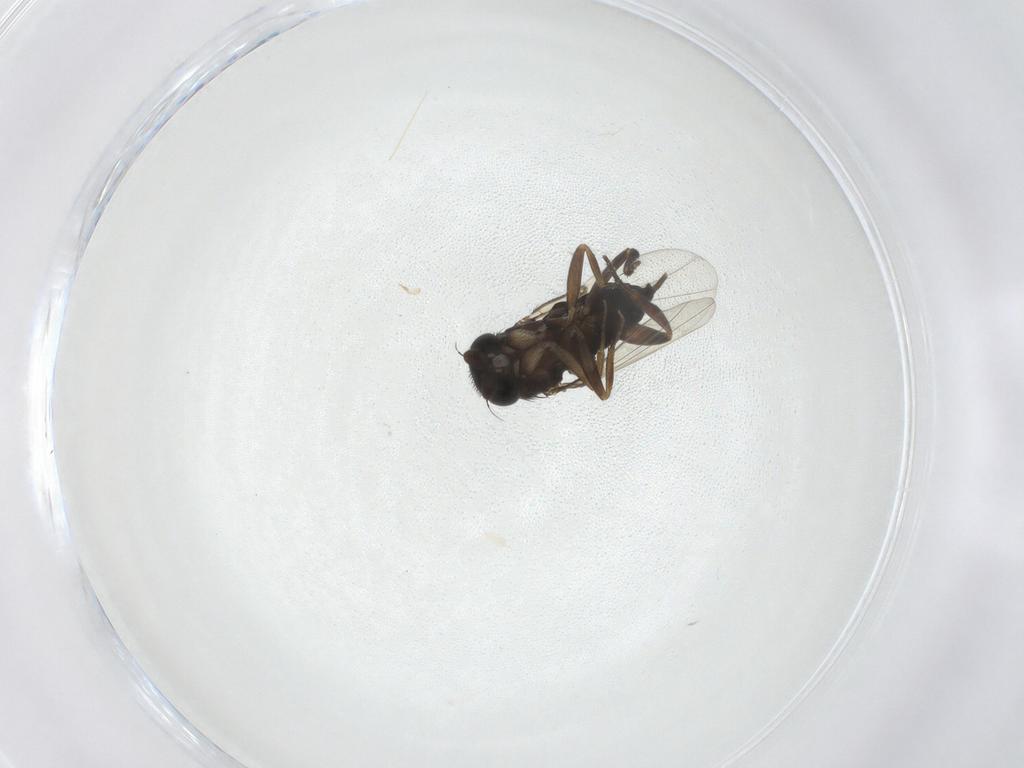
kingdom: Animalia
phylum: Arthropoda
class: Insecta
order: Diptera
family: Phoridae
